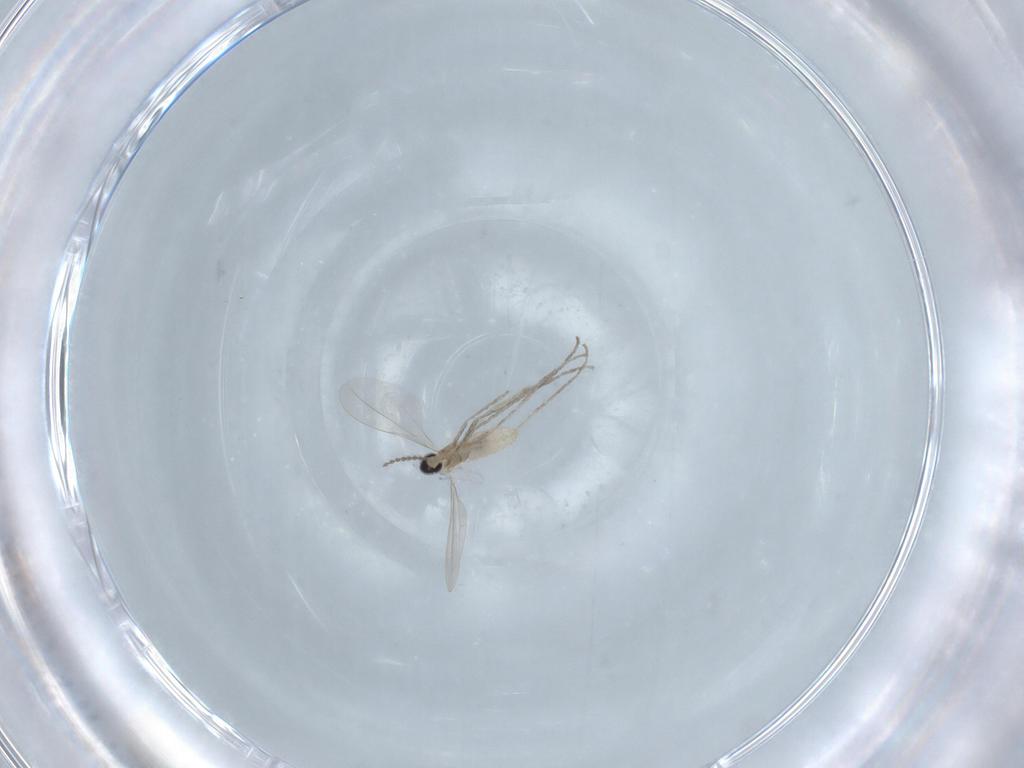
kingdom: Animalia
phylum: Arthropoda
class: Insecta
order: Diptera
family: Cecidomyiidae
